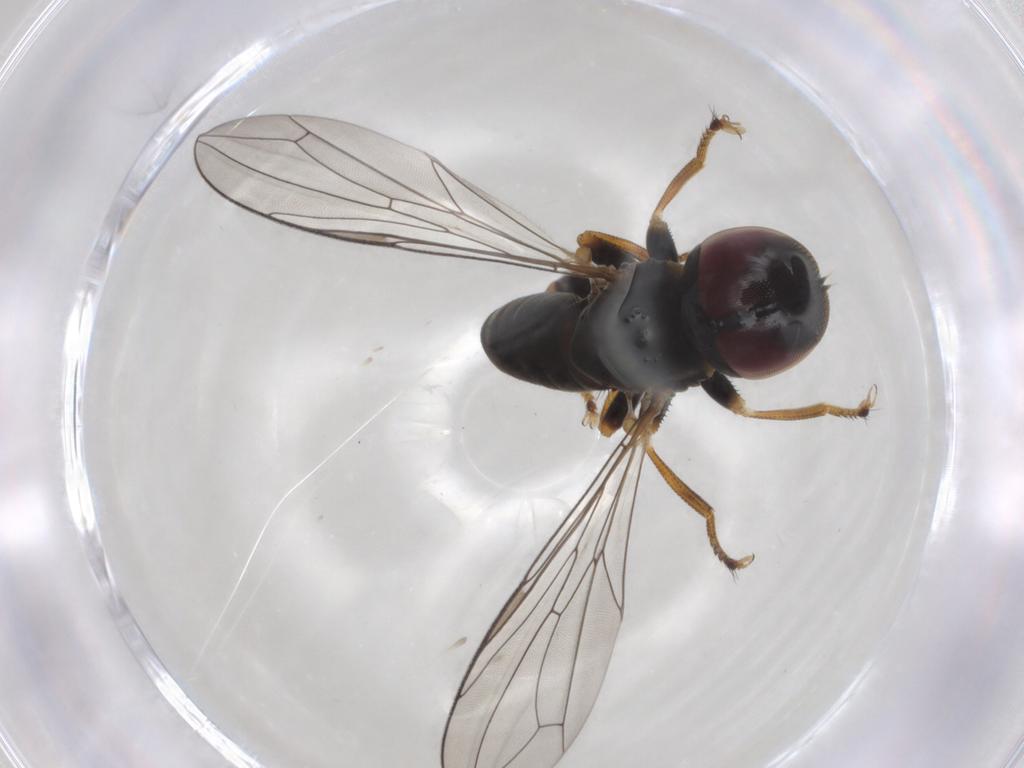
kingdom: Animalia
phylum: Arthropoda
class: Insecta
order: Diptera
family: Pipunculidae
